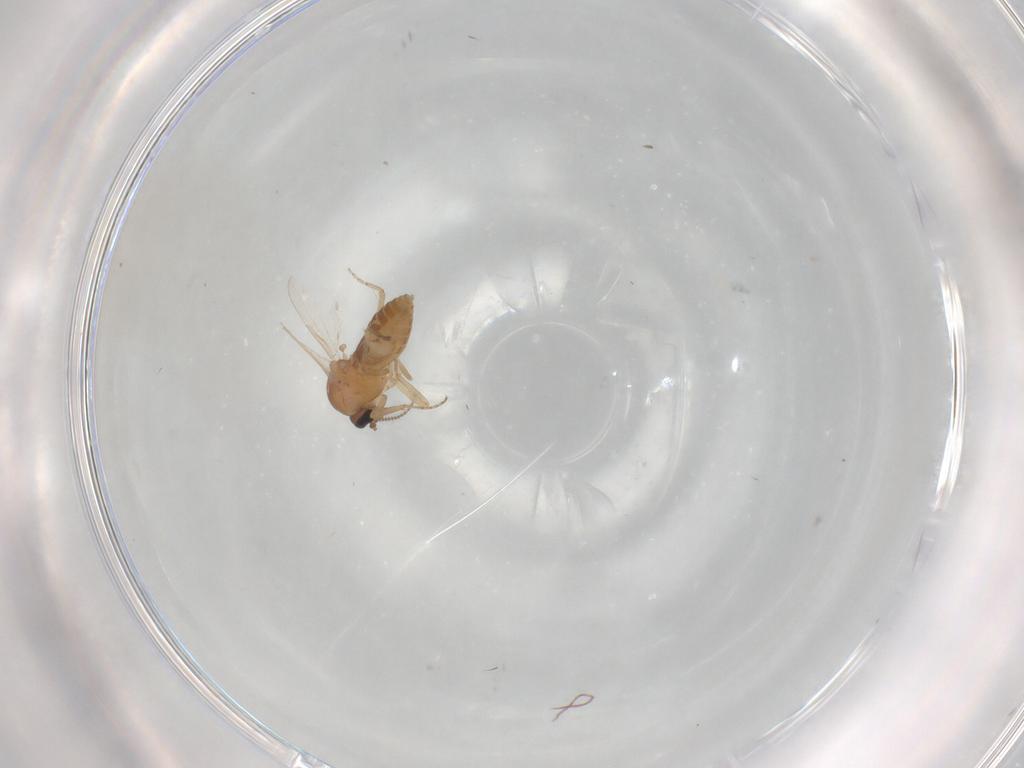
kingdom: Animalia
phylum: Arthropoda
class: Insecta
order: Diptera
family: Ceratopogonidae
